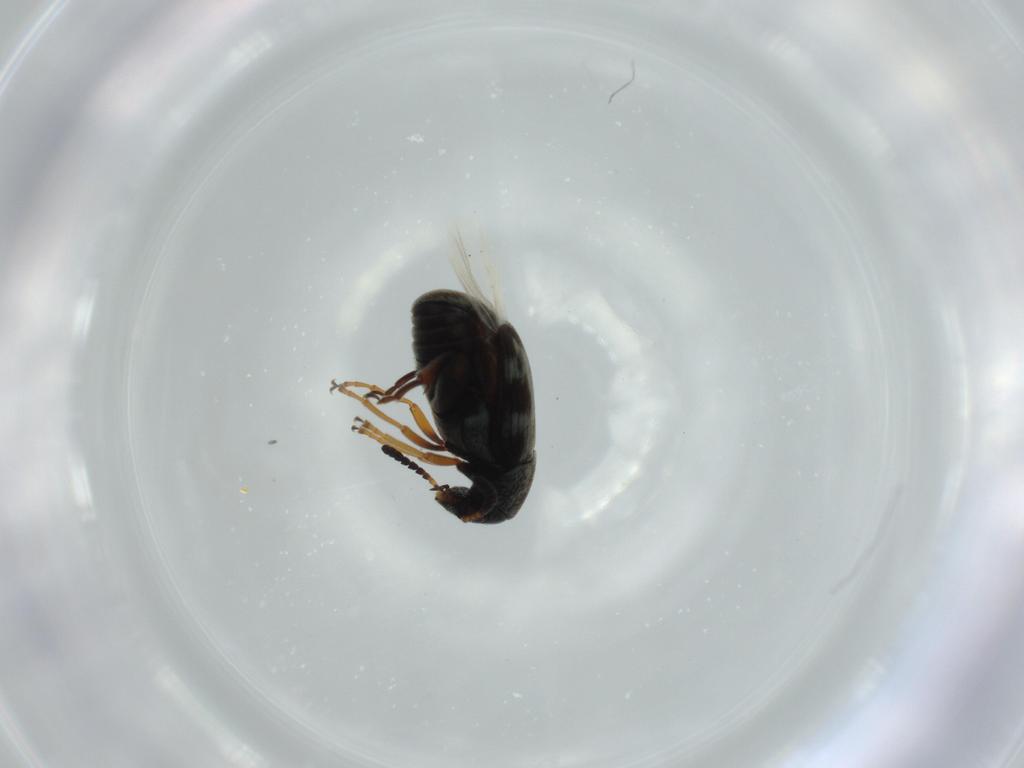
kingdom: Animalia
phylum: Arthropoda
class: Insecta
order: Coleoptera
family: Chrysomelidae
